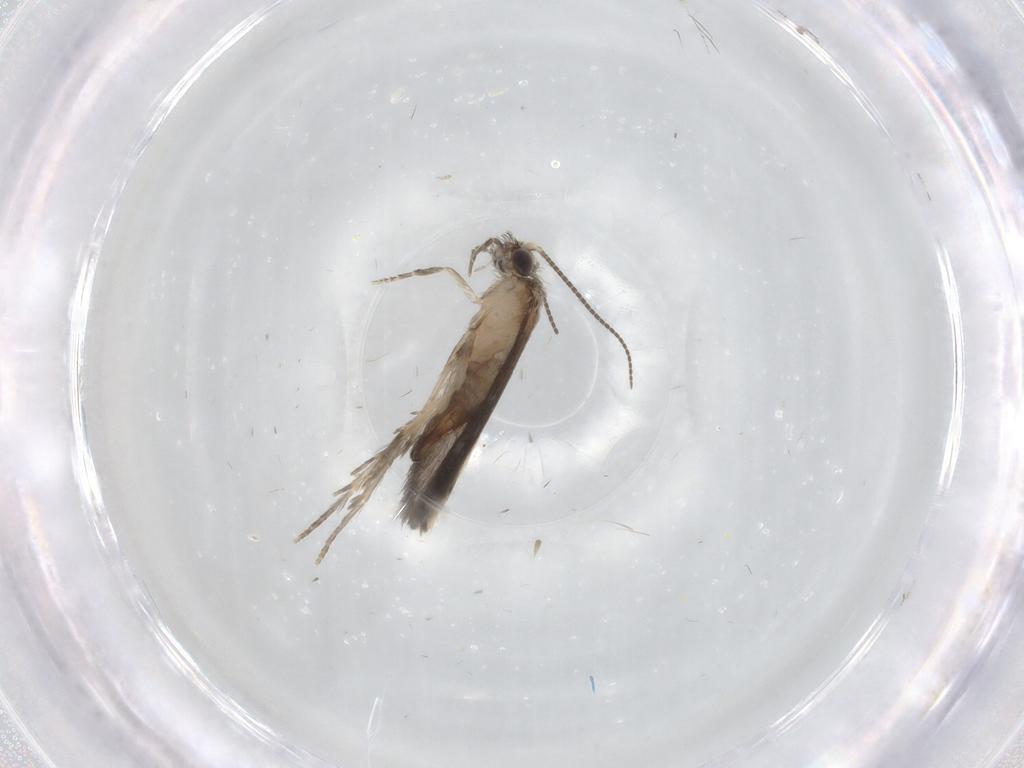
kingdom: Animalia
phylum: Arthropoda
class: Insecta
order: Trichoptera
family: Hydroptilidae
